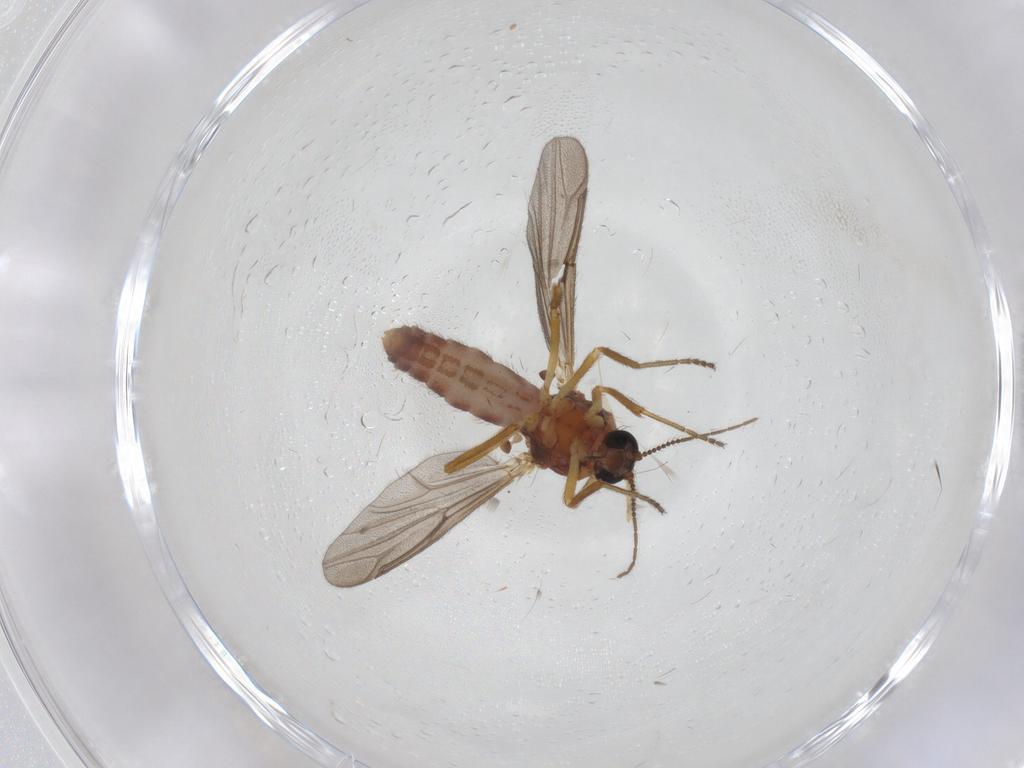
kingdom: Animalia
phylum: Arthropoda
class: Insecta
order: Diptera
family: Ceratopogonidae
